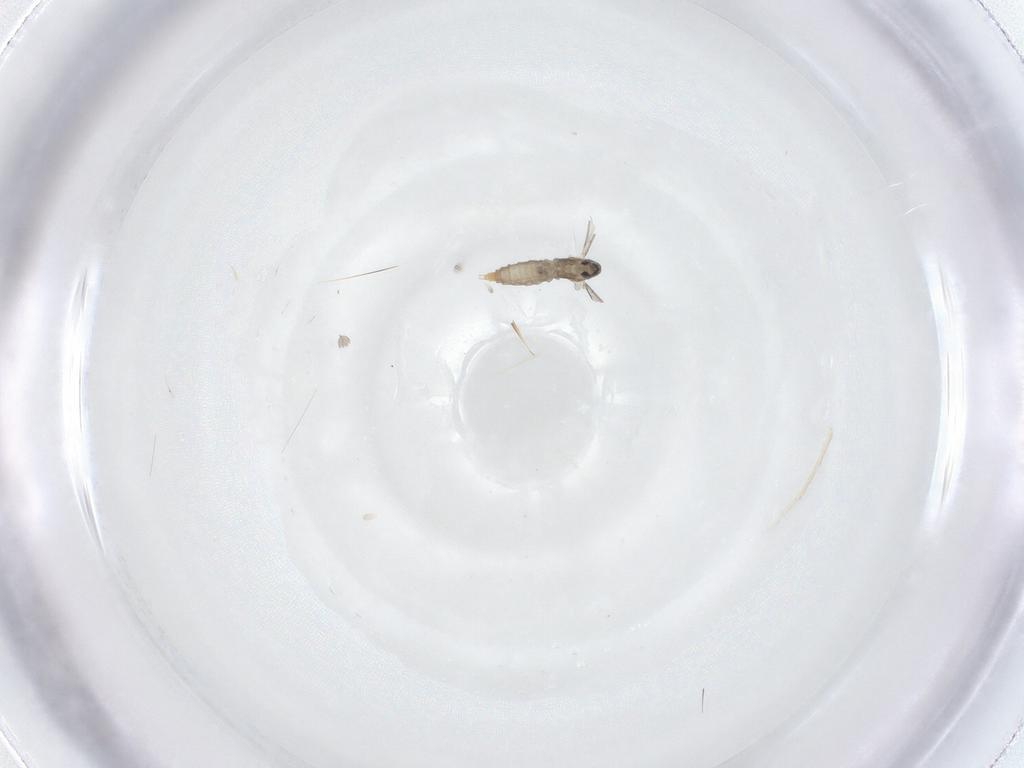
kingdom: Animalia
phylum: Arthropoda
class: Insecta
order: Diptera
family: Cecidomyiidae
